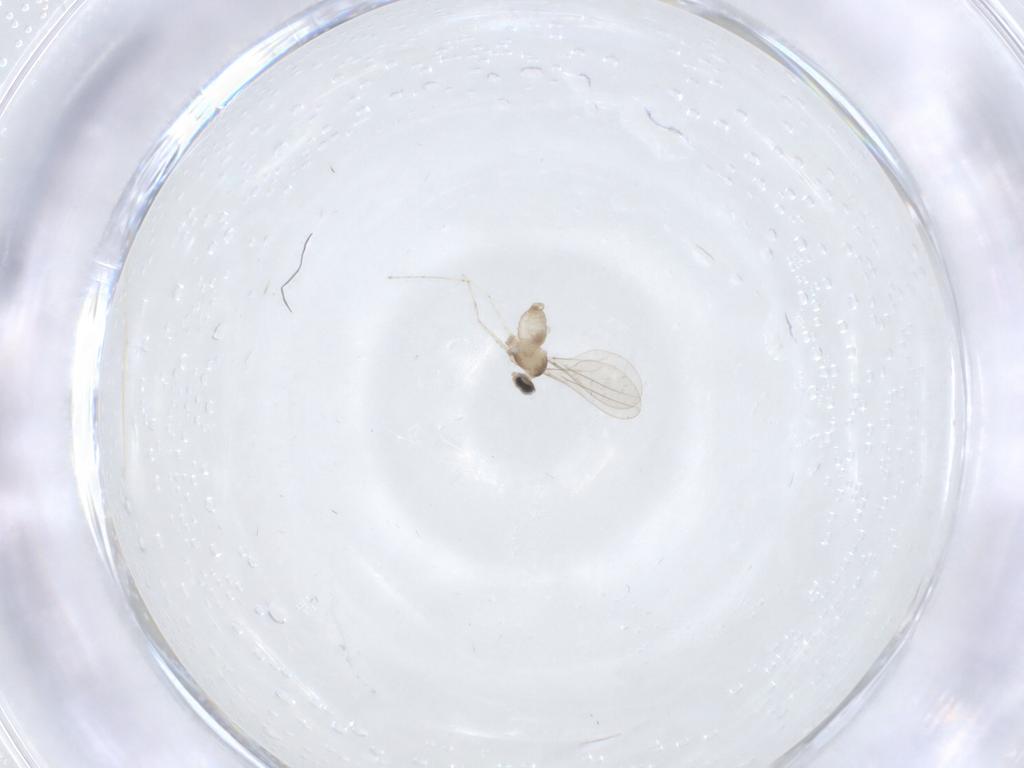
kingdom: Animalia
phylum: Arthropoda
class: Insecta
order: Diptera
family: Cecidomyiidae
